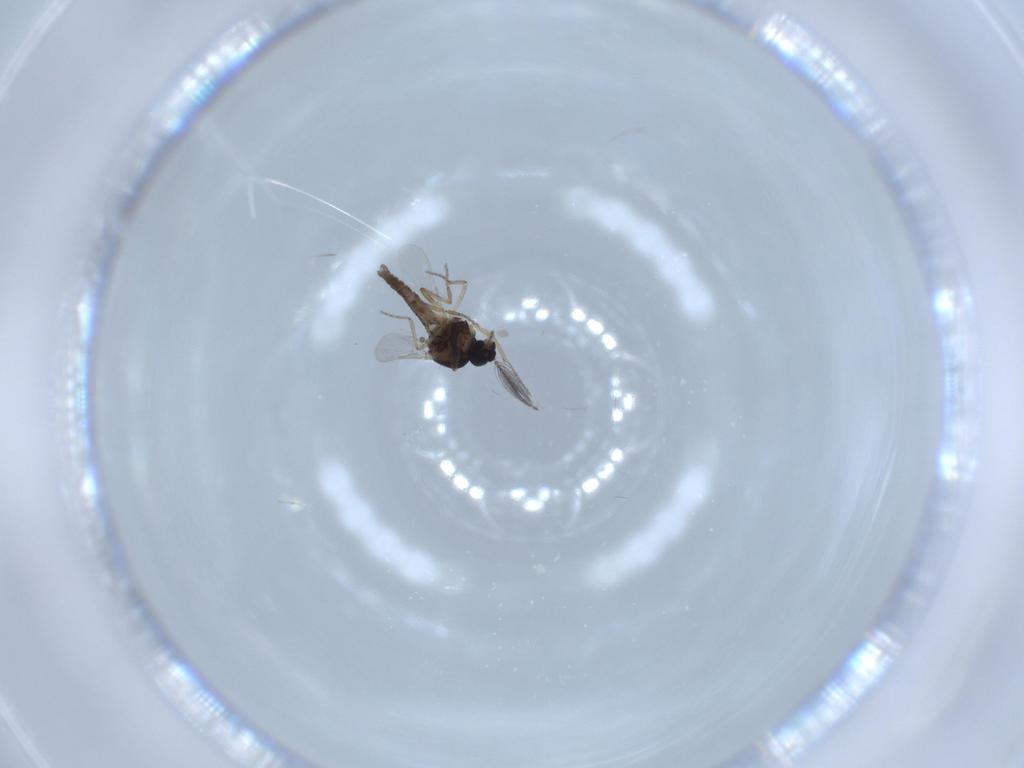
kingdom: Animalia
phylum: Arthropoda
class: Insecta
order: Diptera
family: Ceratopogonidae
